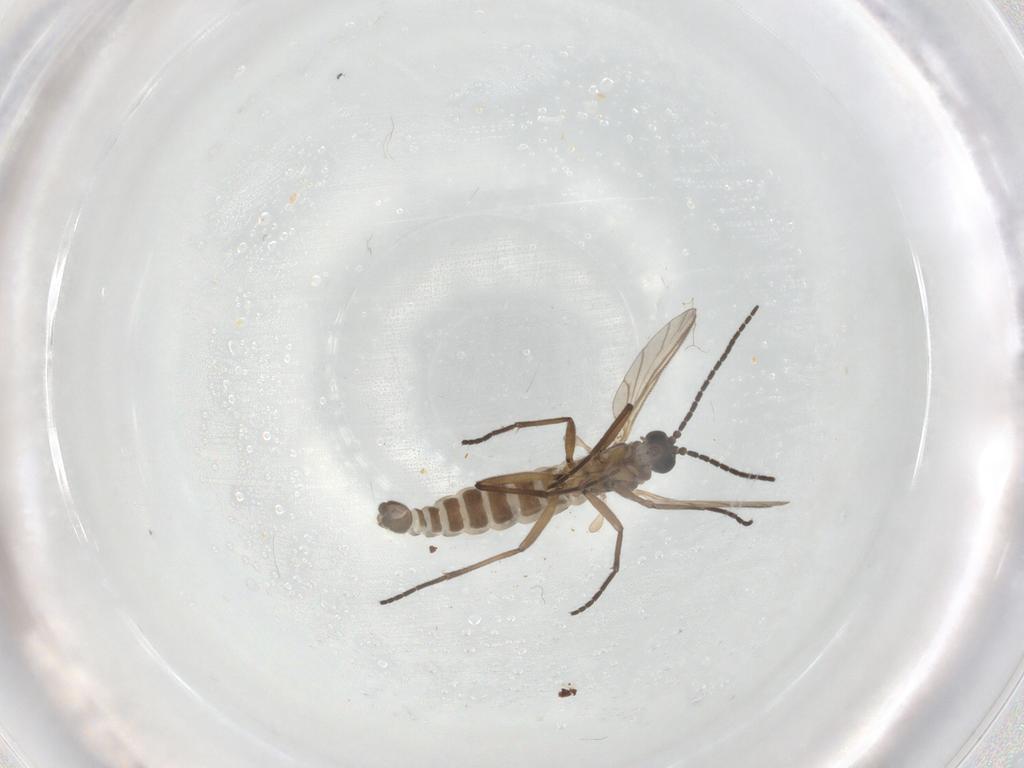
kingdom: Animalia
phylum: Arthropoda
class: Insecta
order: Diptera
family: Sciaridae
